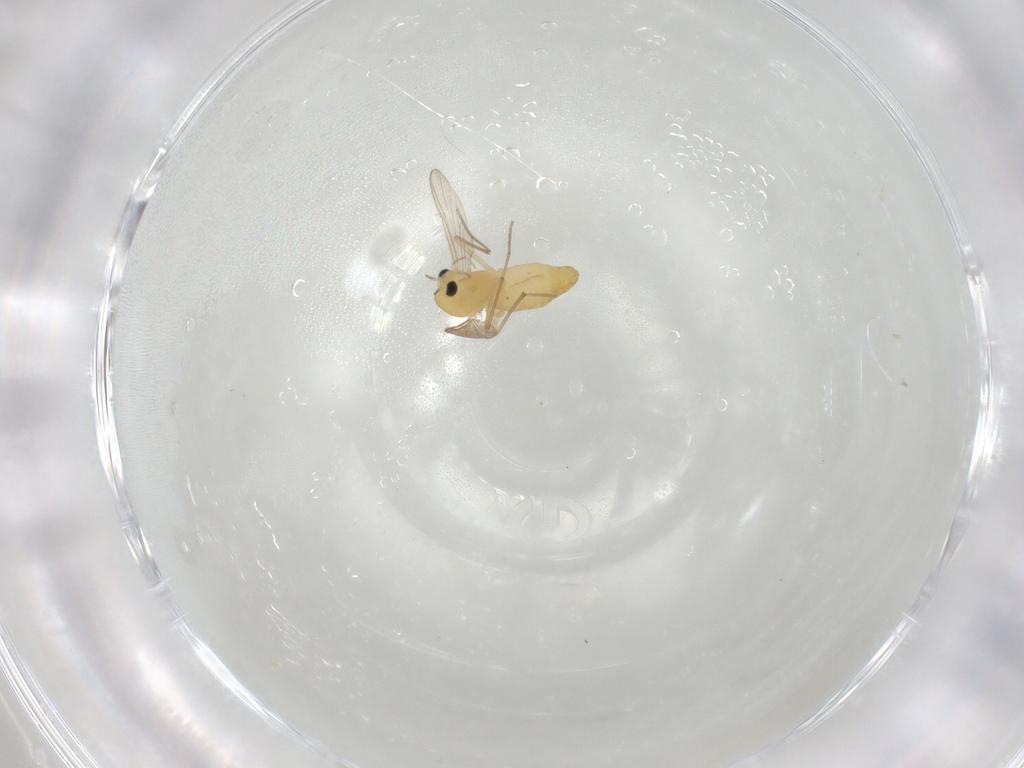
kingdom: Animalia
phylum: Arthropoda
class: Insecta
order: Diptera
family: Chironomidae
